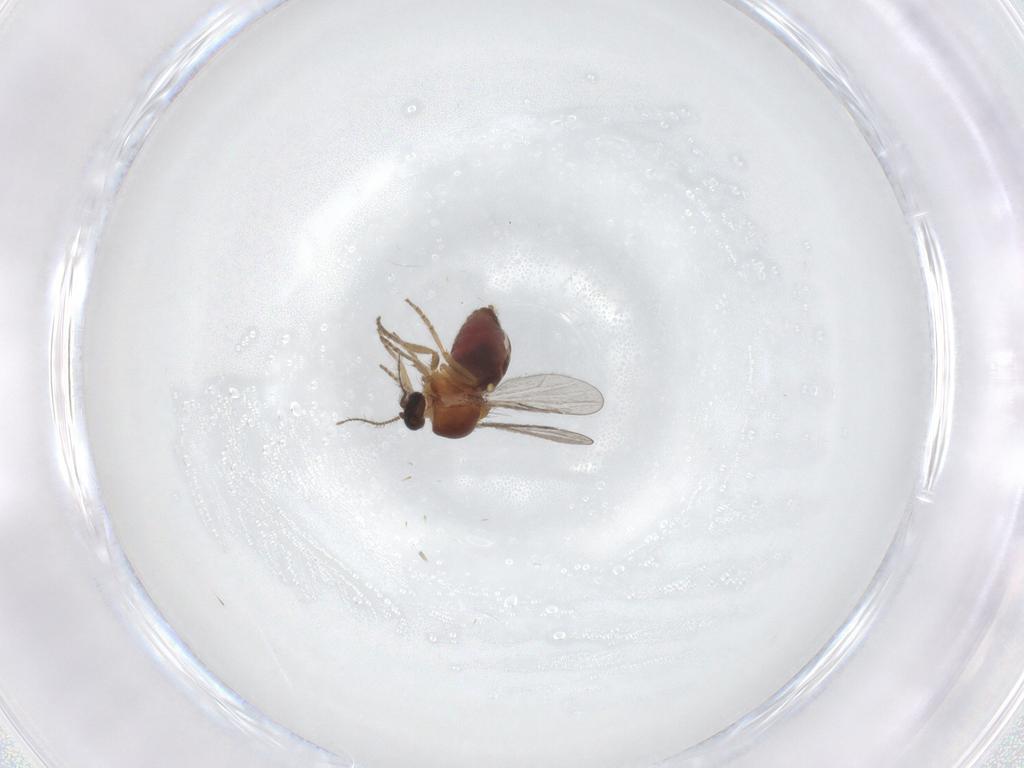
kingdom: Animalia
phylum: Arthropoda
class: Insecta
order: Diptera
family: Ceratopogonidae
